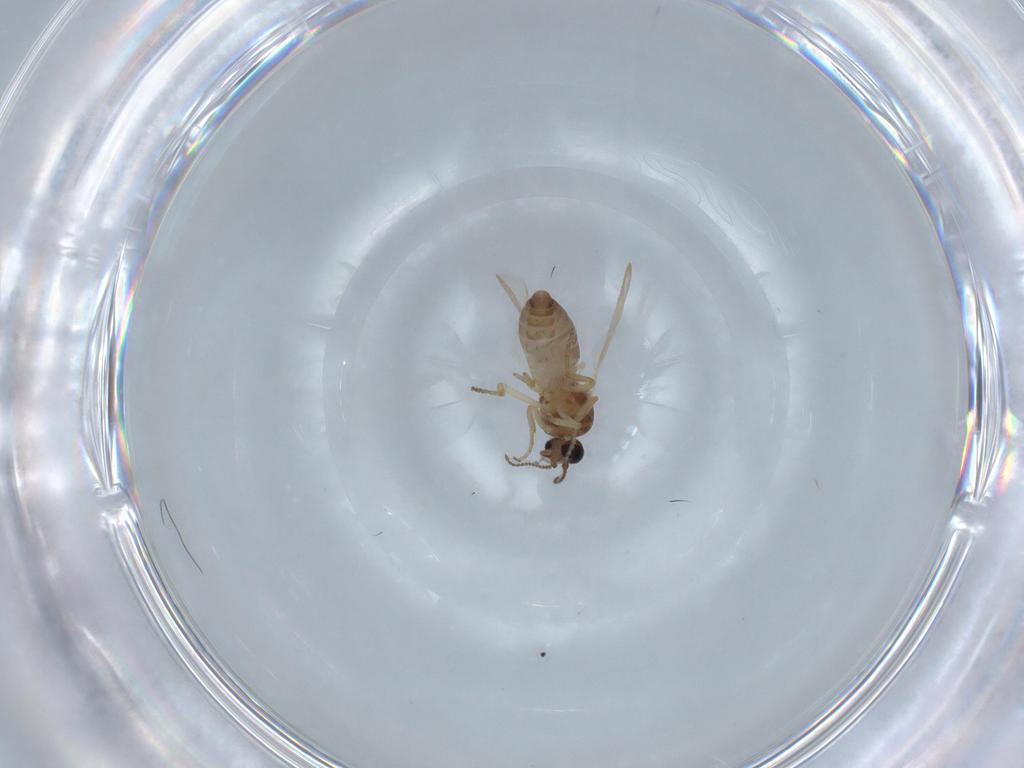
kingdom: Animalia
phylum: Arthropoda
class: Insecta
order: Diptera
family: Ceratopogonidae
